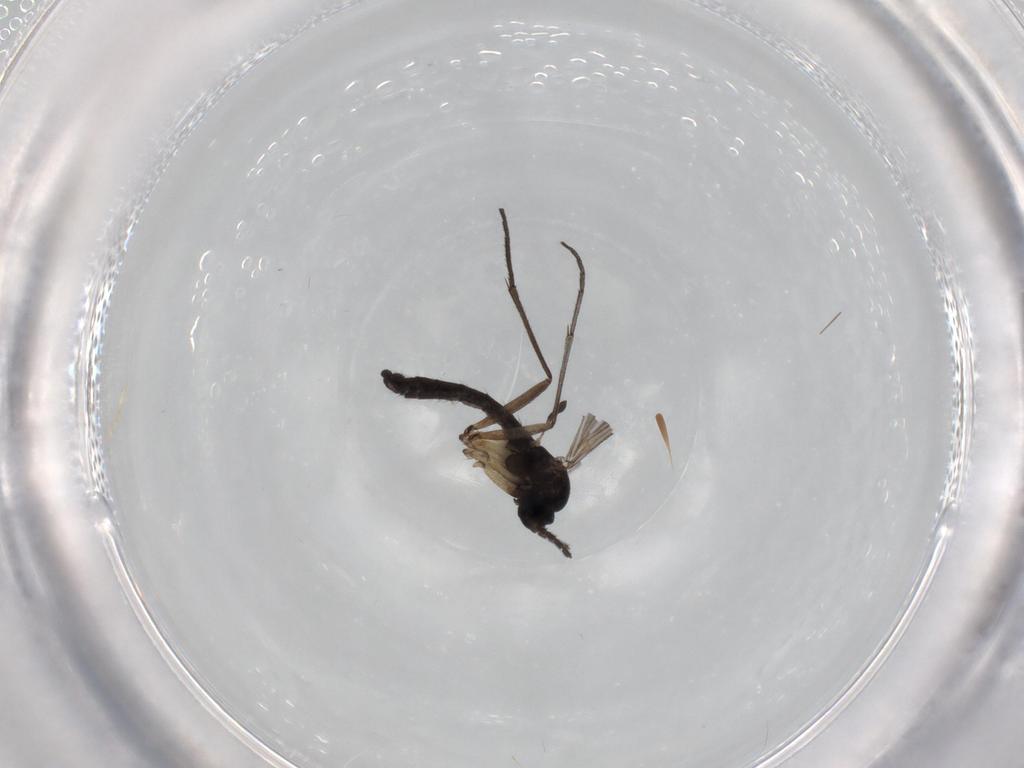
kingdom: Animalia
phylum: Arthropoda
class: Insecta
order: Diptera
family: Sciaridae
